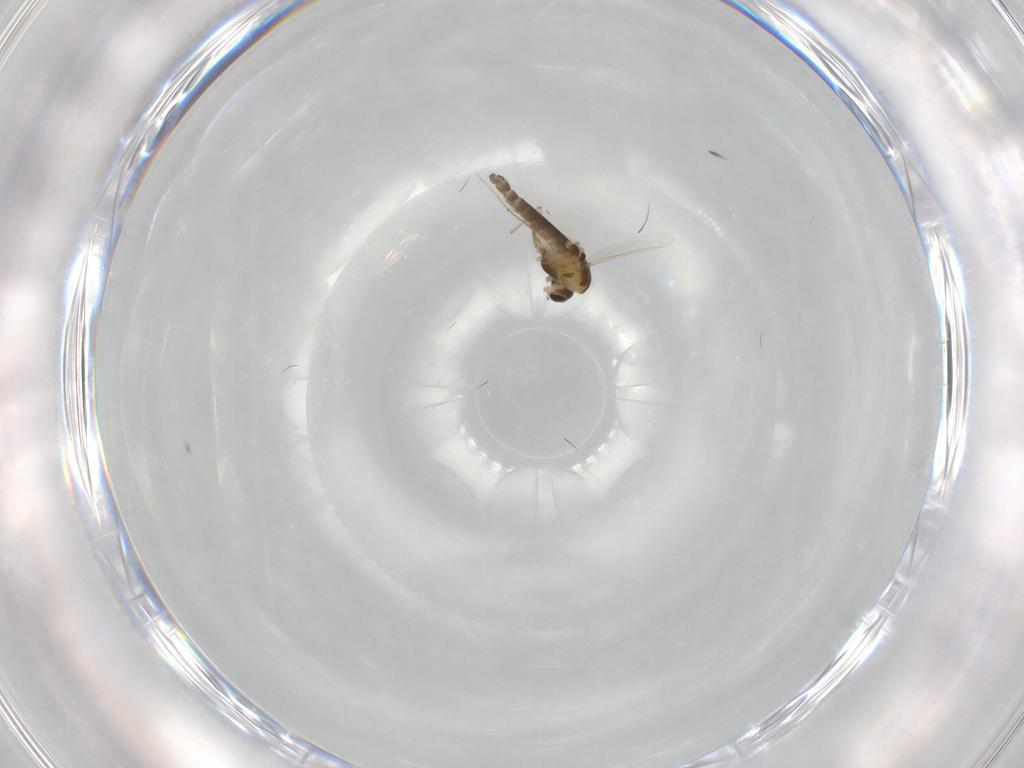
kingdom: Animalia
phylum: Arthropoda
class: Insecta
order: Diptera
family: Chironomidae
